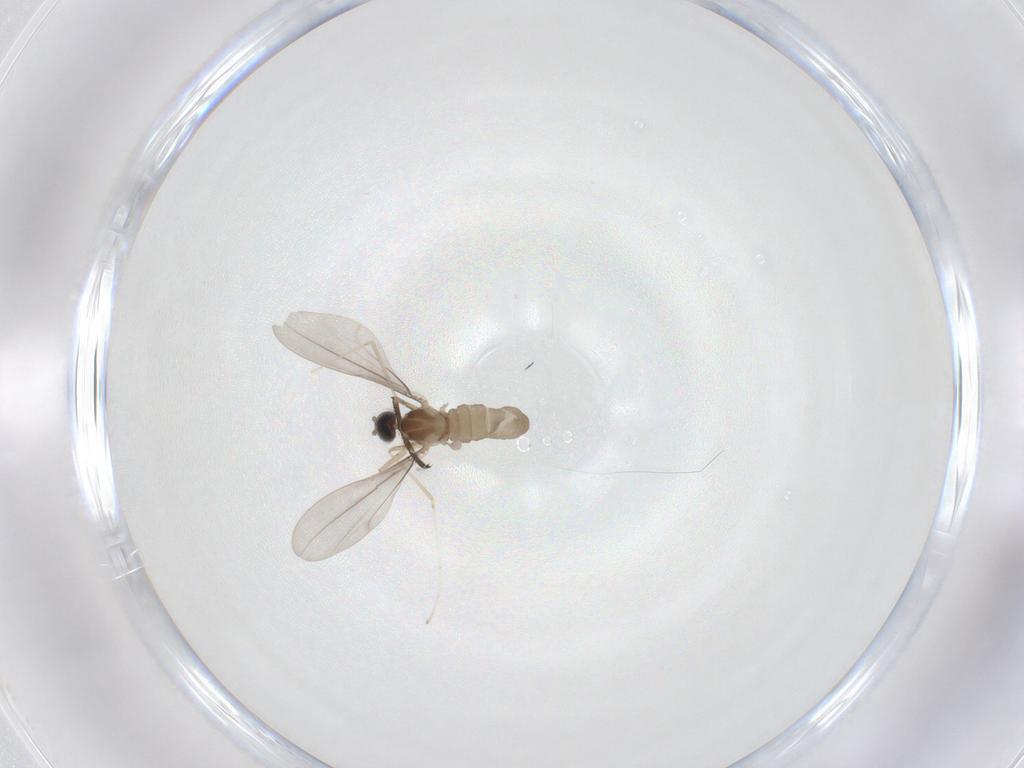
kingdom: Animalia
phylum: Arthropoda
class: Insecta
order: Diptera
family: Cecidomyiidae
